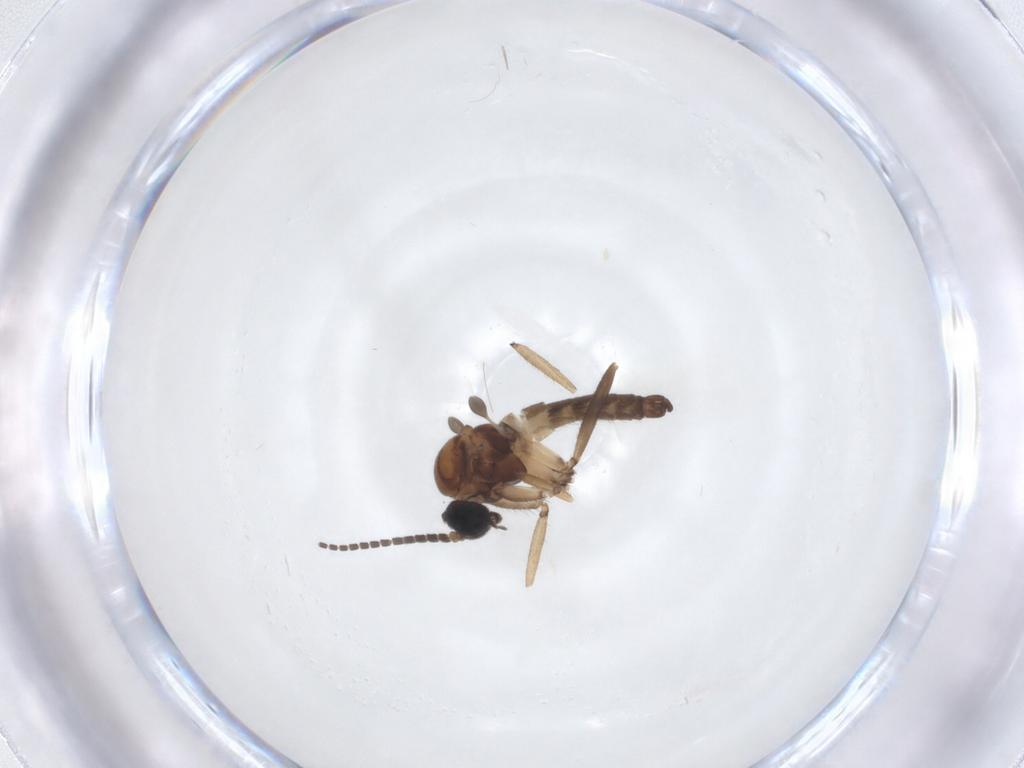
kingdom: Animalia
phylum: Arthropoda
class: Insecta
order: Diptera
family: Sciaridae
